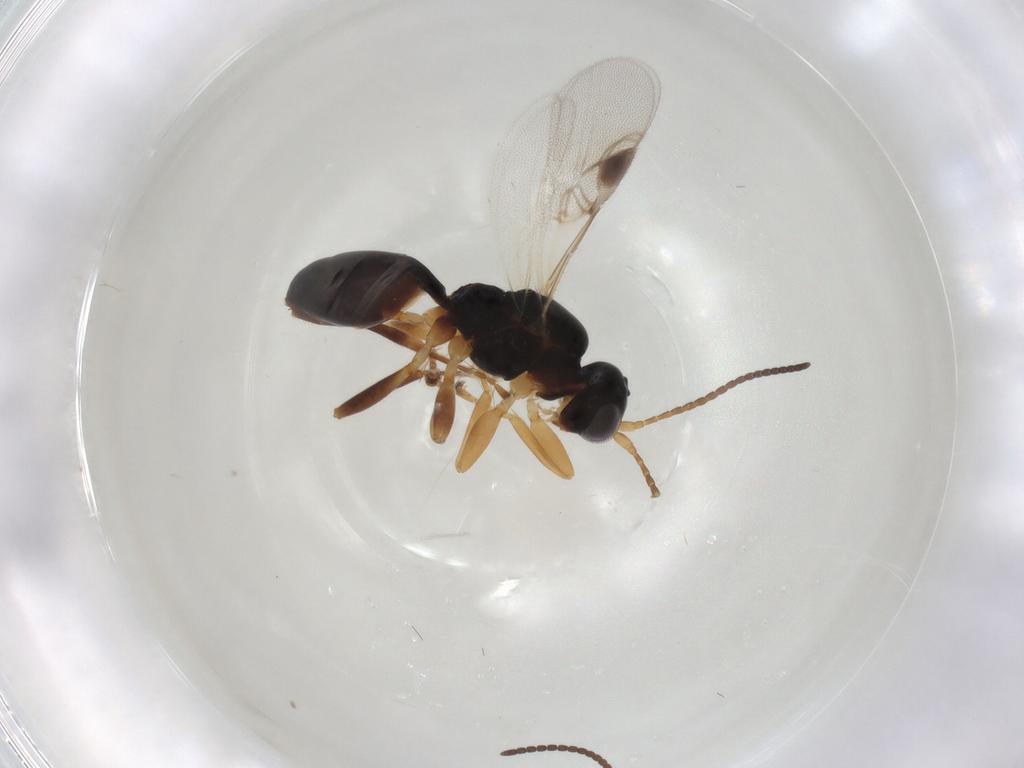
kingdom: Animalia
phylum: Arthropoda
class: Insecta
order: Hymenoptera
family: Braconidae
